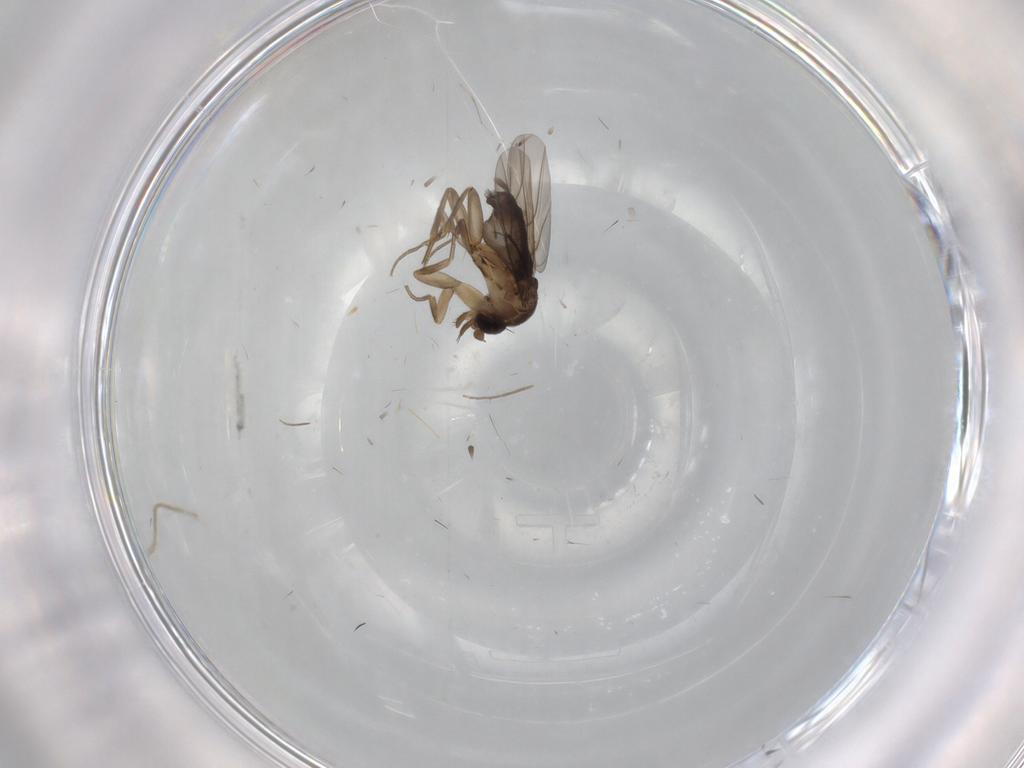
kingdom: Animalia
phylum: Arthropoda
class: Insecta
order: Diptera
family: Phoridae
